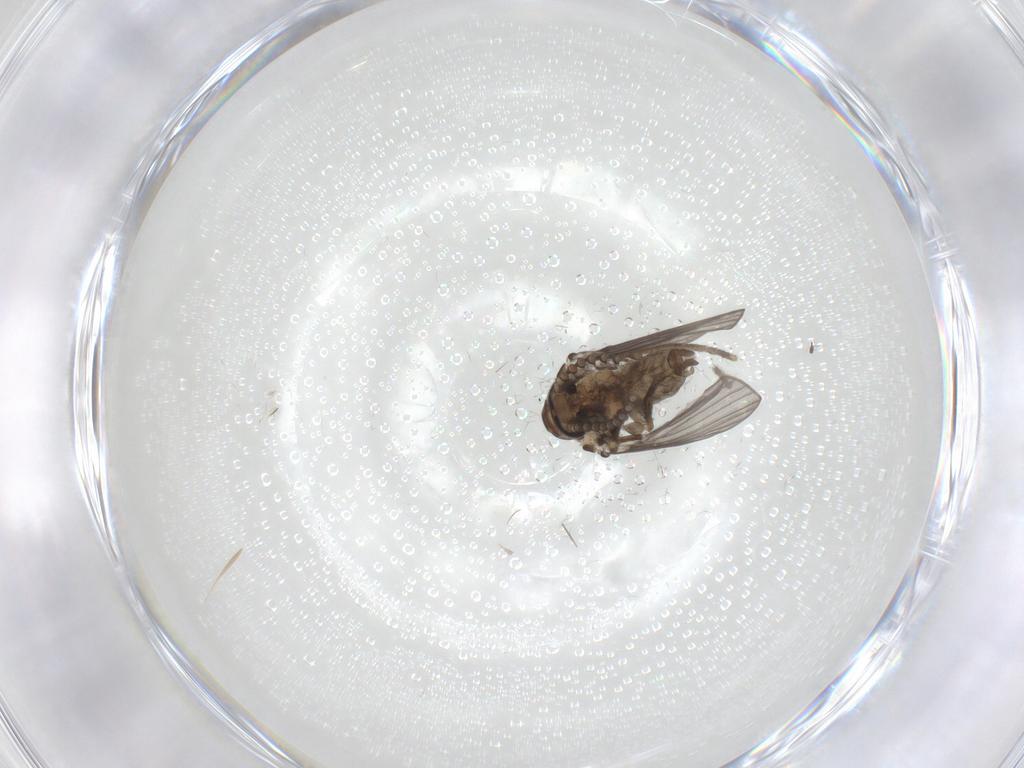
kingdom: Animalia
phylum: Arthropoda
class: Insecta
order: Diptera
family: Psychodidae
